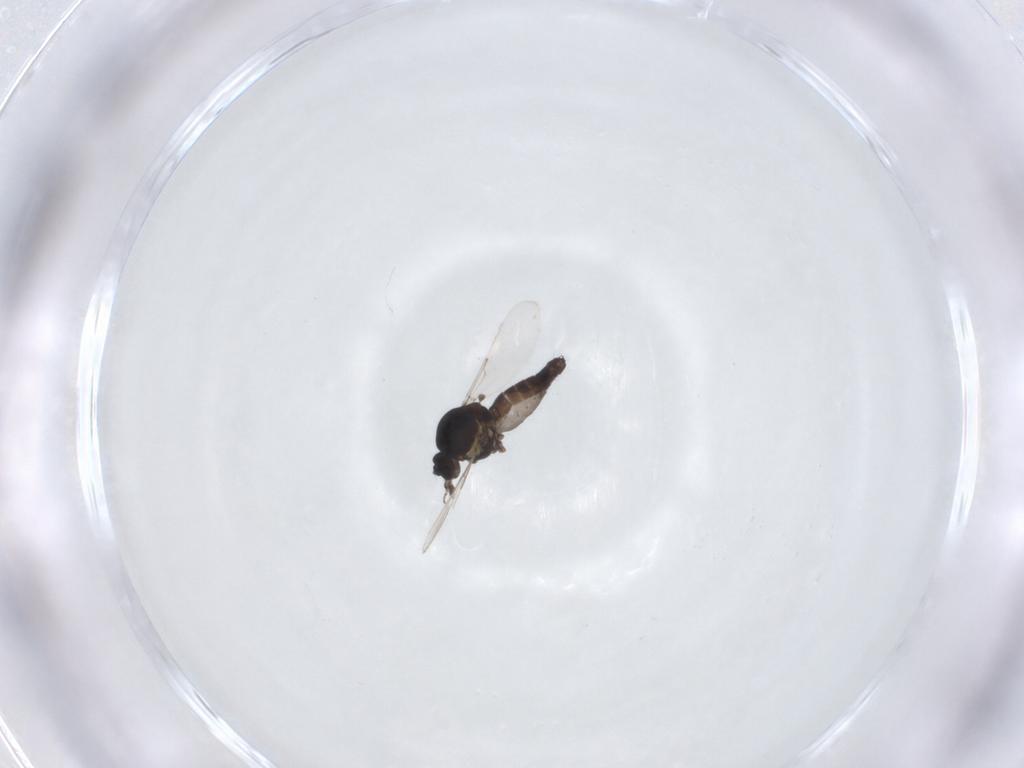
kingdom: Animalia
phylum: Arthropoda
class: Insecta
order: Diptera
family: Ceratopogonidae
